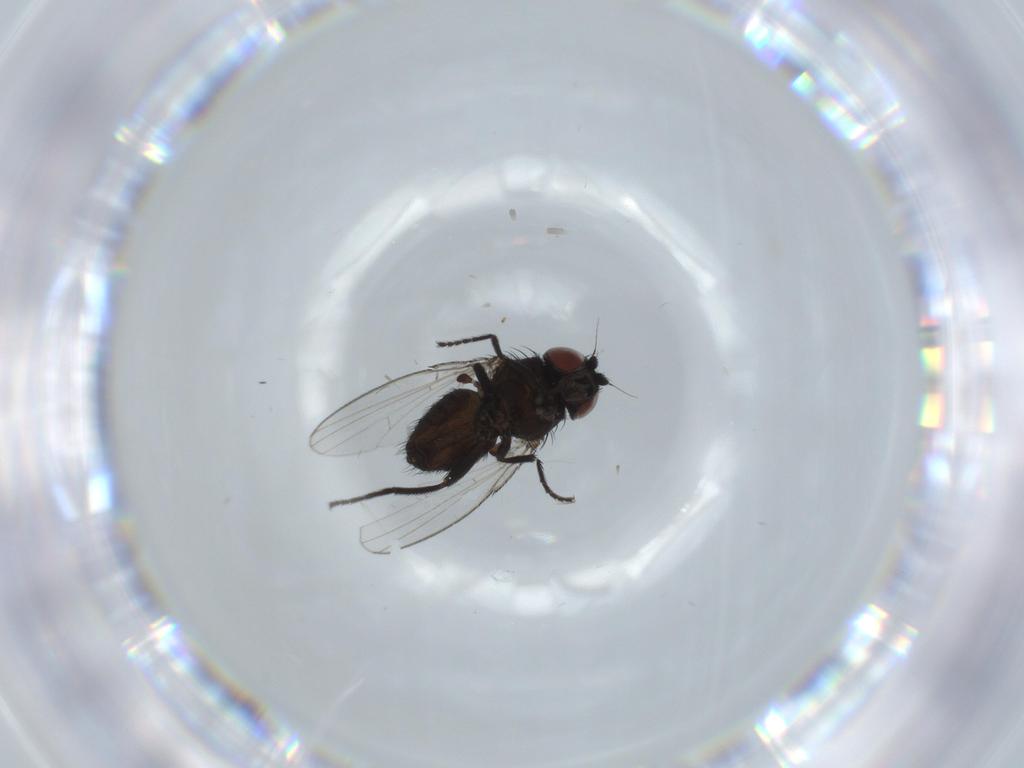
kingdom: Animalia
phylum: Arthropoda
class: Insecta
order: Diptera
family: Milichiidae
